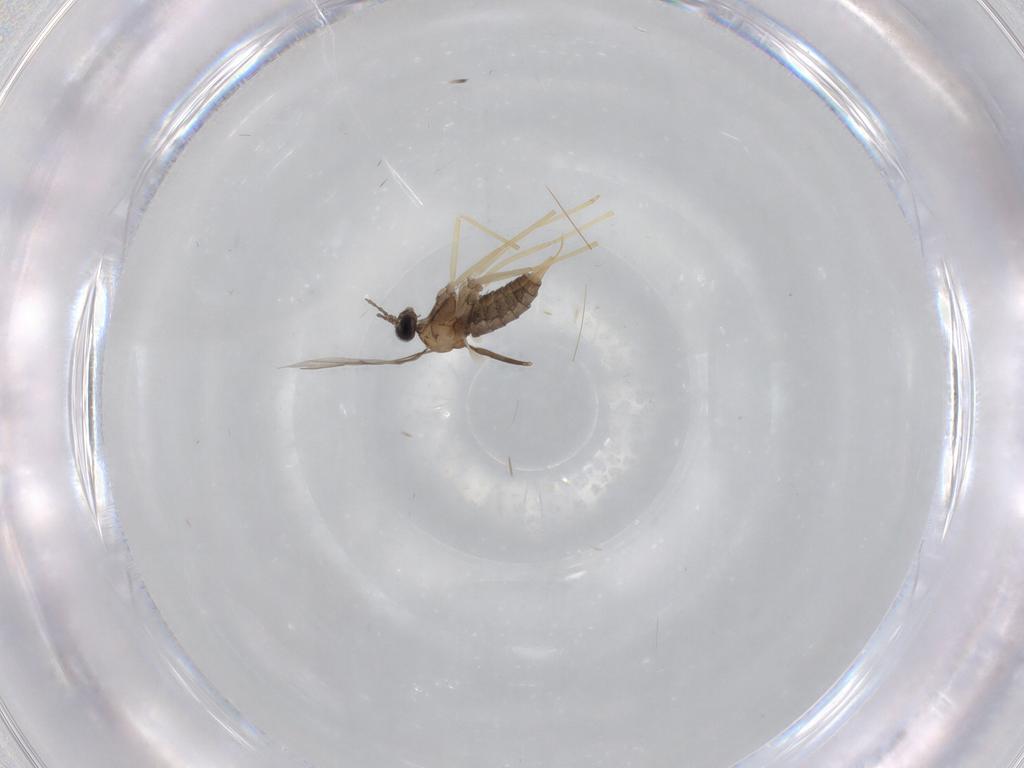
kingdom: Animalia
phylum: Arthropoda
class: Insecta
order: Diptera
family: Cecidomyiidae
